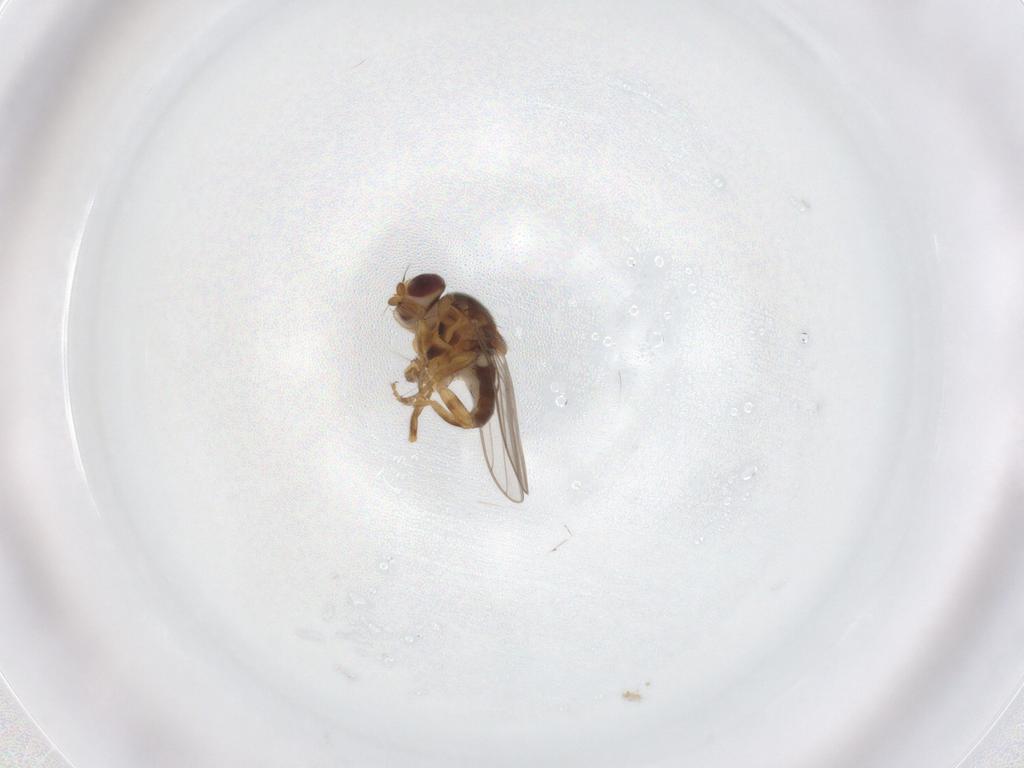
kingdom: Animalia
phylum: Arthropoda
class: Insecta
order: Diptera
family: Chloropidae
